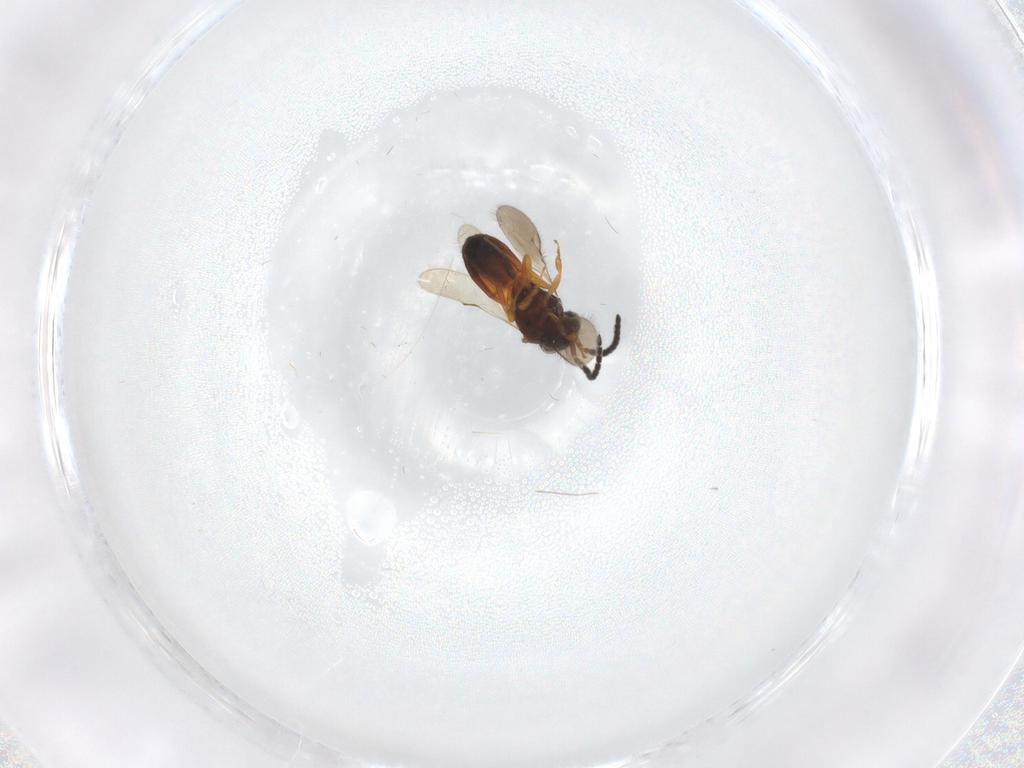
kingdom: Animalia
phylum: Arthropoda
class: Insecta
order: Hymenoptera
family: Scelionidae
